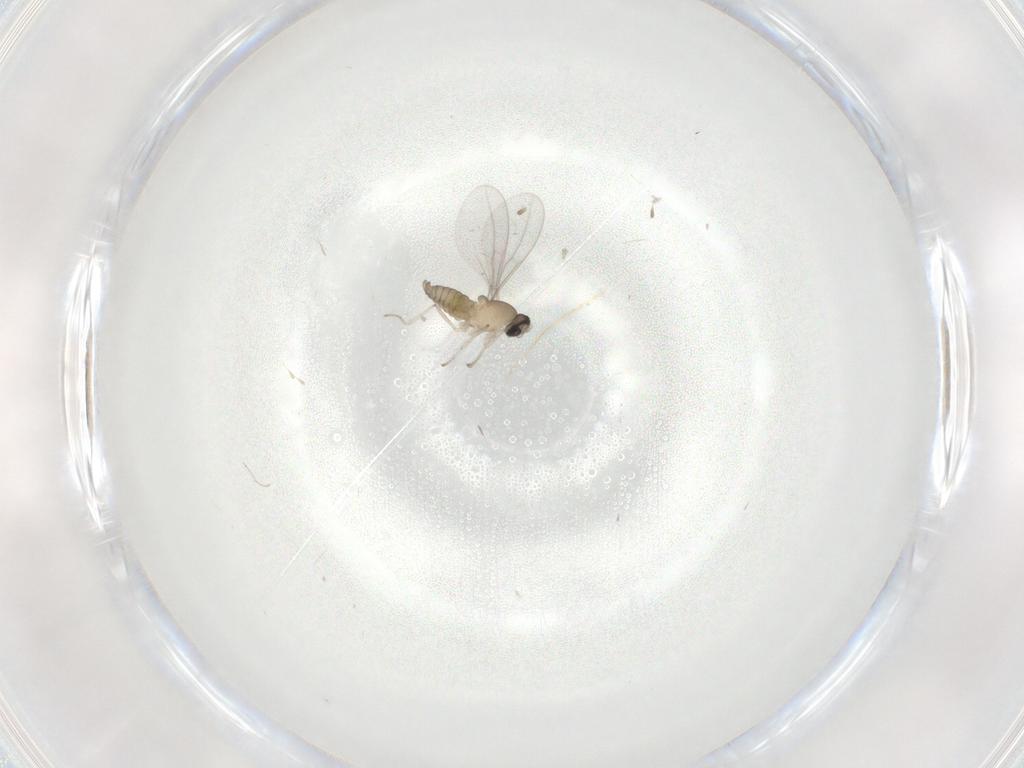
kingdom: Animalia
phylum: Arthropoda
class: Insecta
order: Diptera
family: Cecidomyiidae
